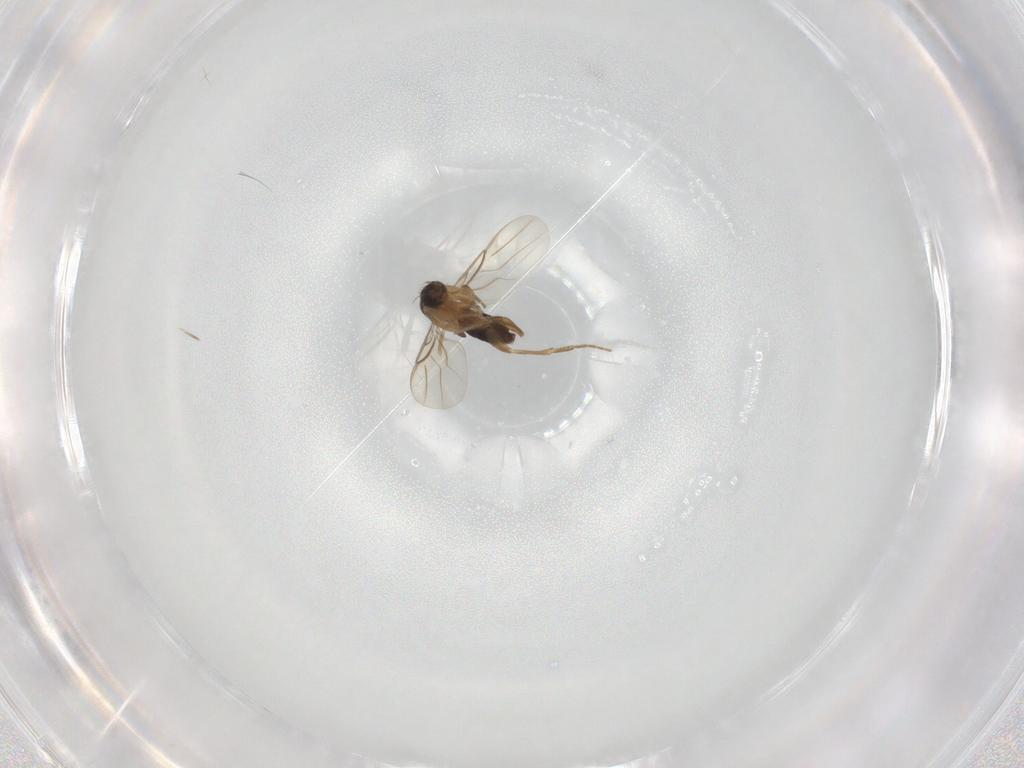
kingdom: Animalia
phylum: Arthropoda
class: Insecta
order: Diptera
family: Phoridae
